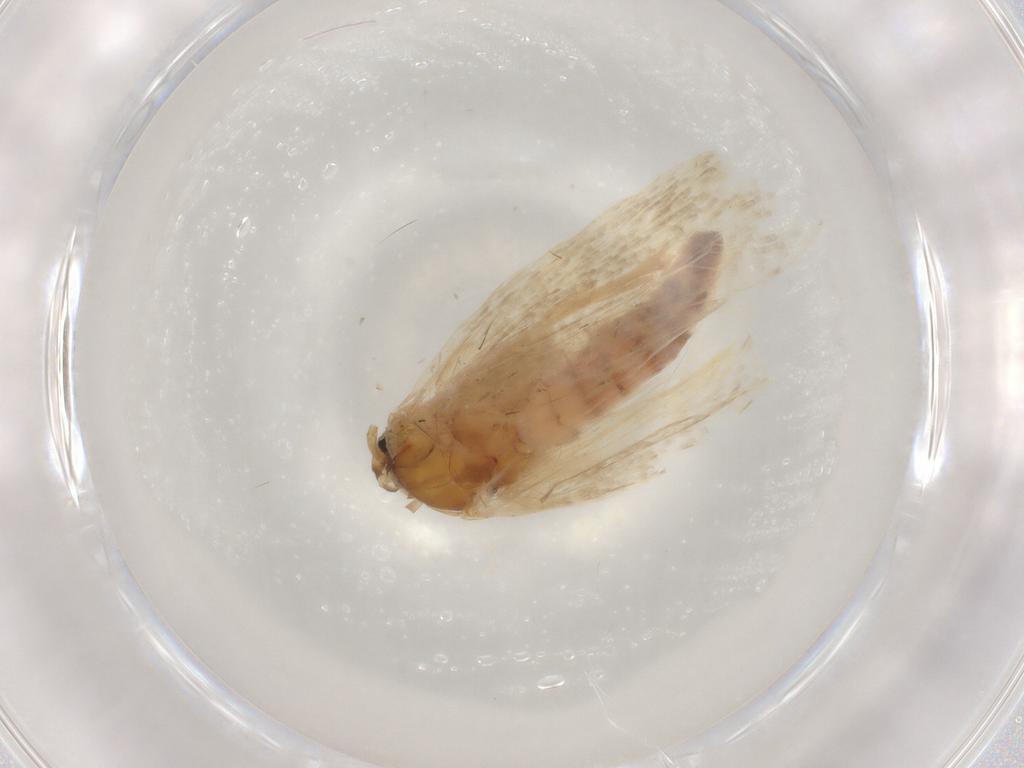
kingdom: Animalia
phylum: Arthropoda
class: Insecta
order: Lepidoptera
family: Crambidae
